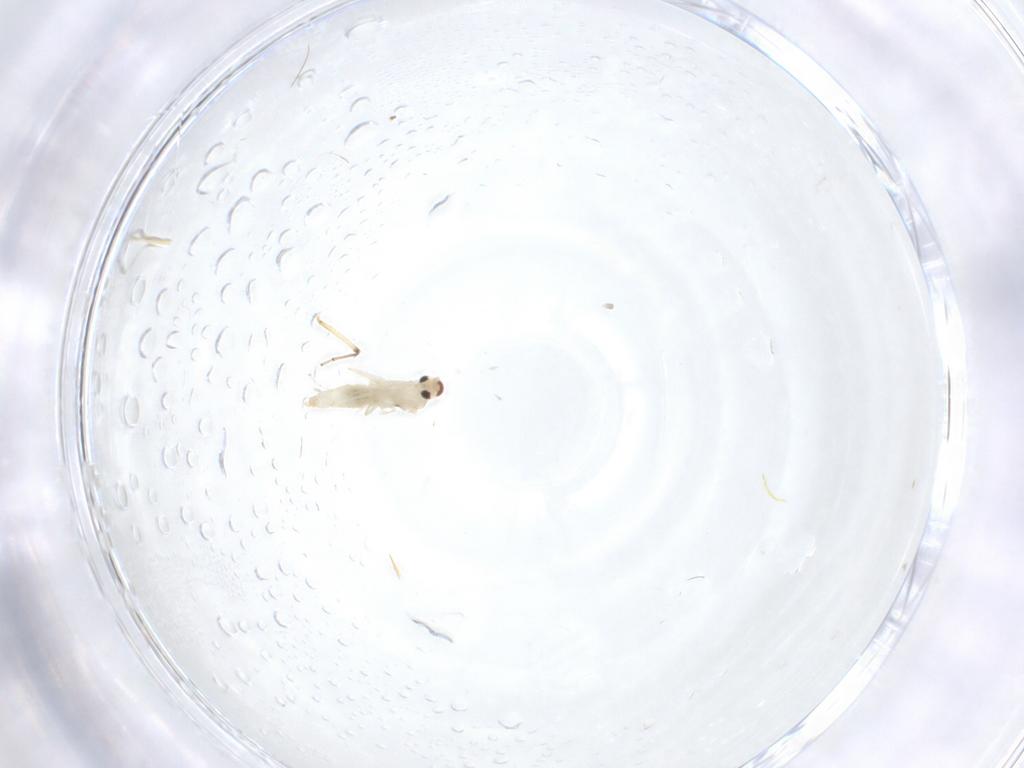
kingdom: Animalia
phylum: Arthropoda
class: Insecta
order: Diptera
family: Cecidomyiidae
